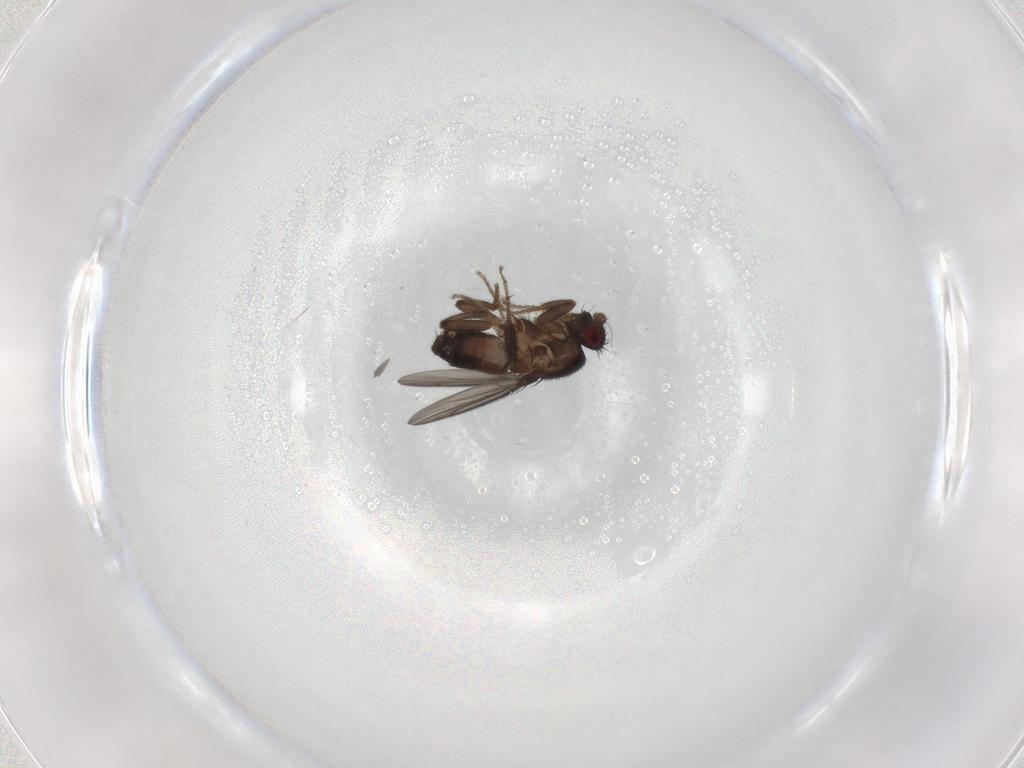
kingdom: Animalia
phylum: Arthropoda
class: Insecta
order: Diptera
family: Sphaeroceridae
